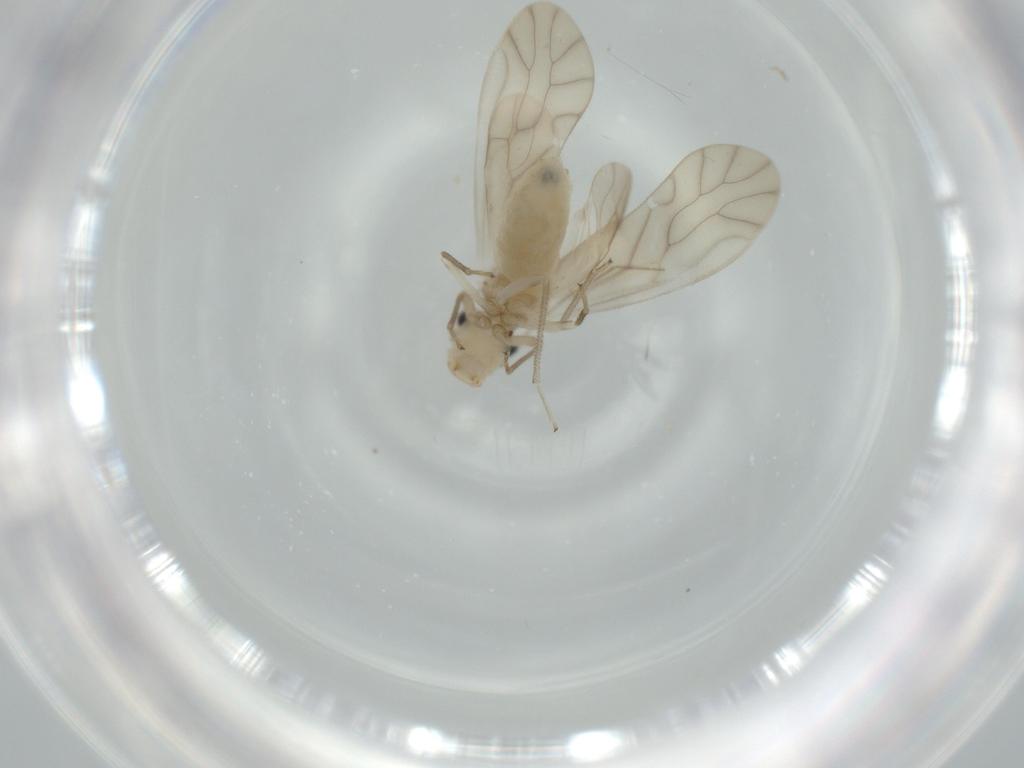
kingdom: Animalia
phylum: Arthropoda
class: Insecta
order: Psocodea
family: Caeciliusidae
